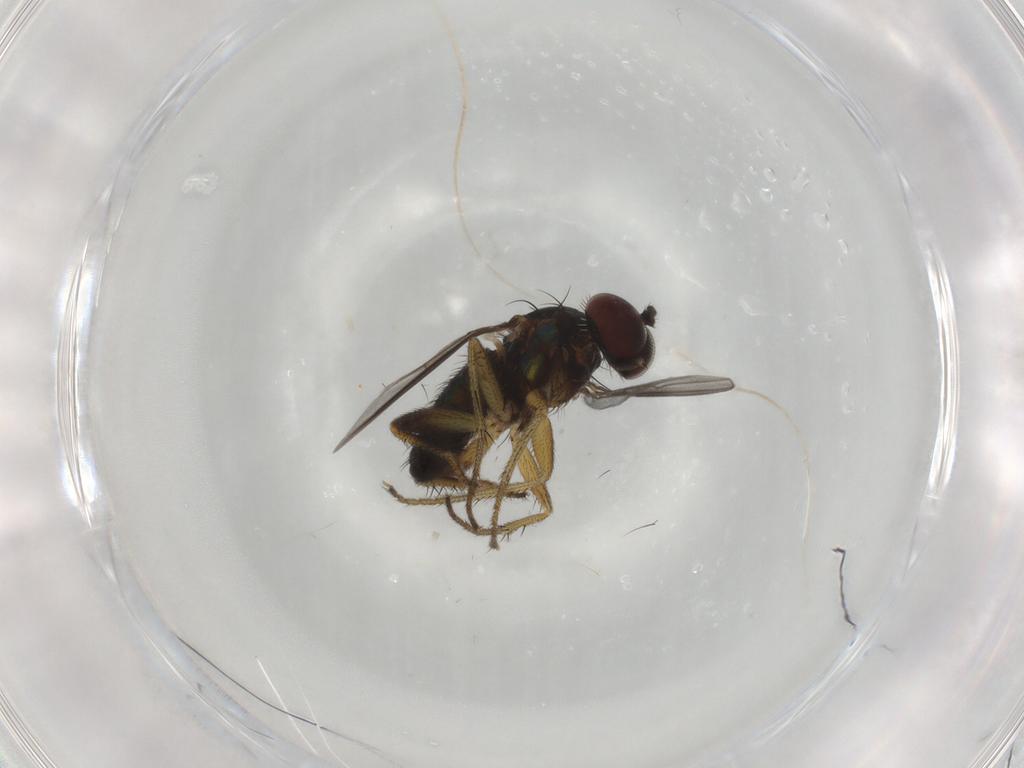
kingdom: Animalia
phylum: Arthropoda
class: Insecta
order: Diptera
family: Dolichopodidae
